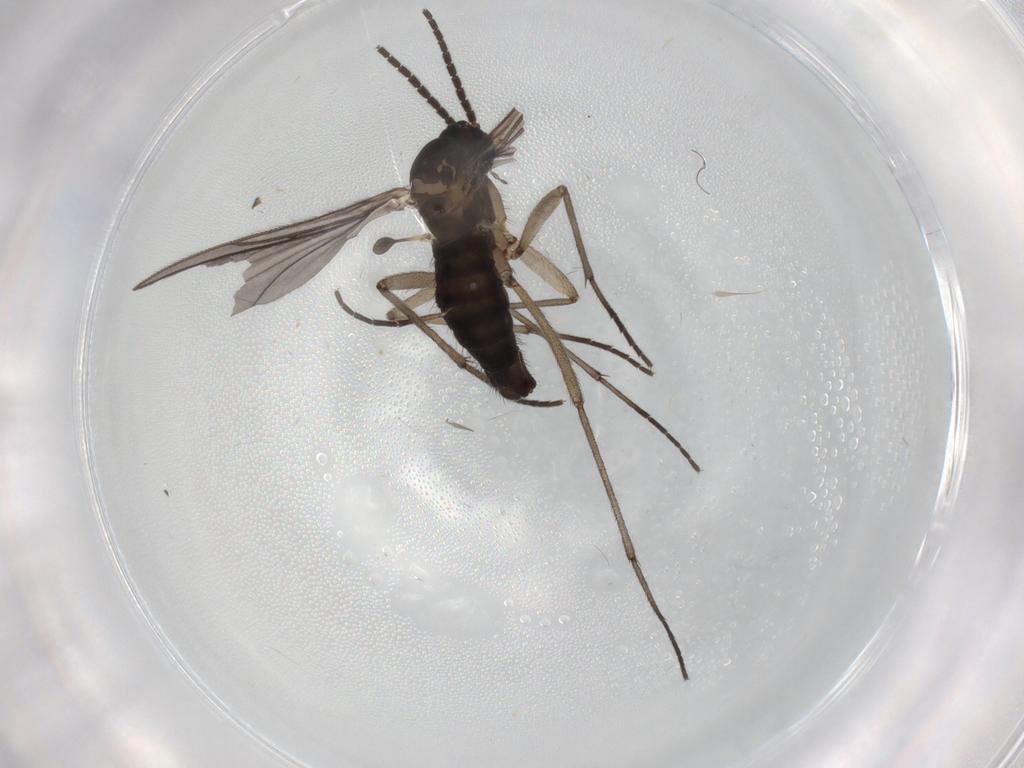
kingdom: Animalia
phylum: Arthropoda
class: Insecta
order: Diptera
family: Sciaridae
